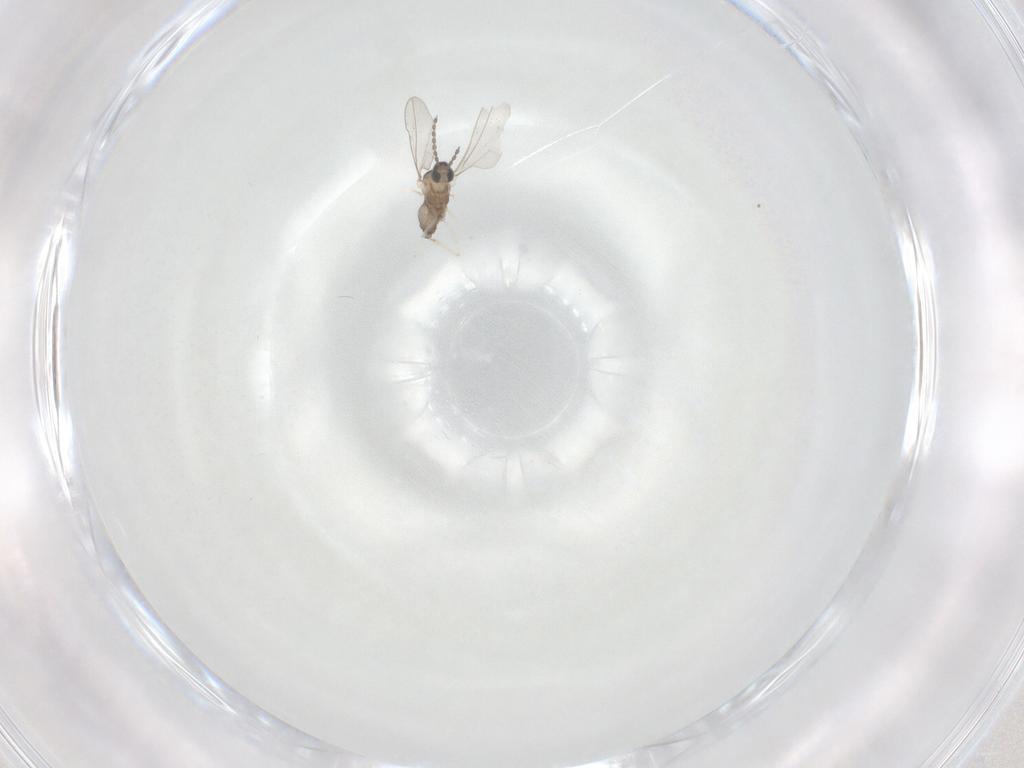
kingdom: Animalia
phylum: Arthropoda
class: Insecta
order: Diptera
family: Cecidomyiidae
